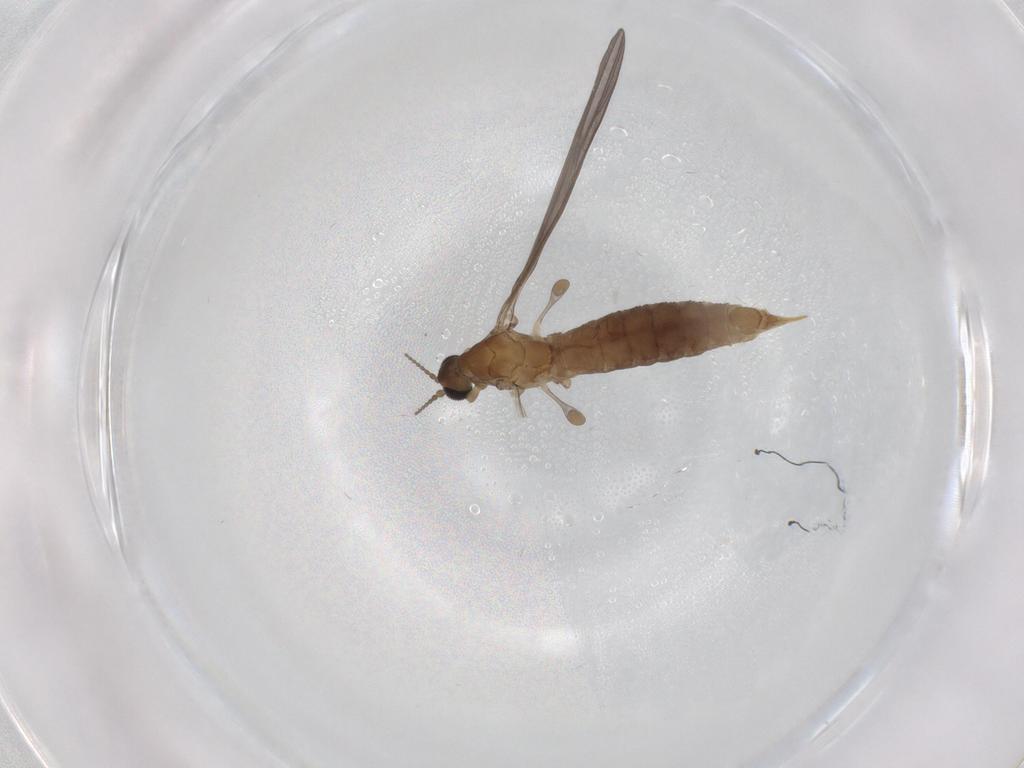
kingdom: Animalia
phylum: Arthropoda
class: Insecta
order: Diptera
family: Limoniidae
